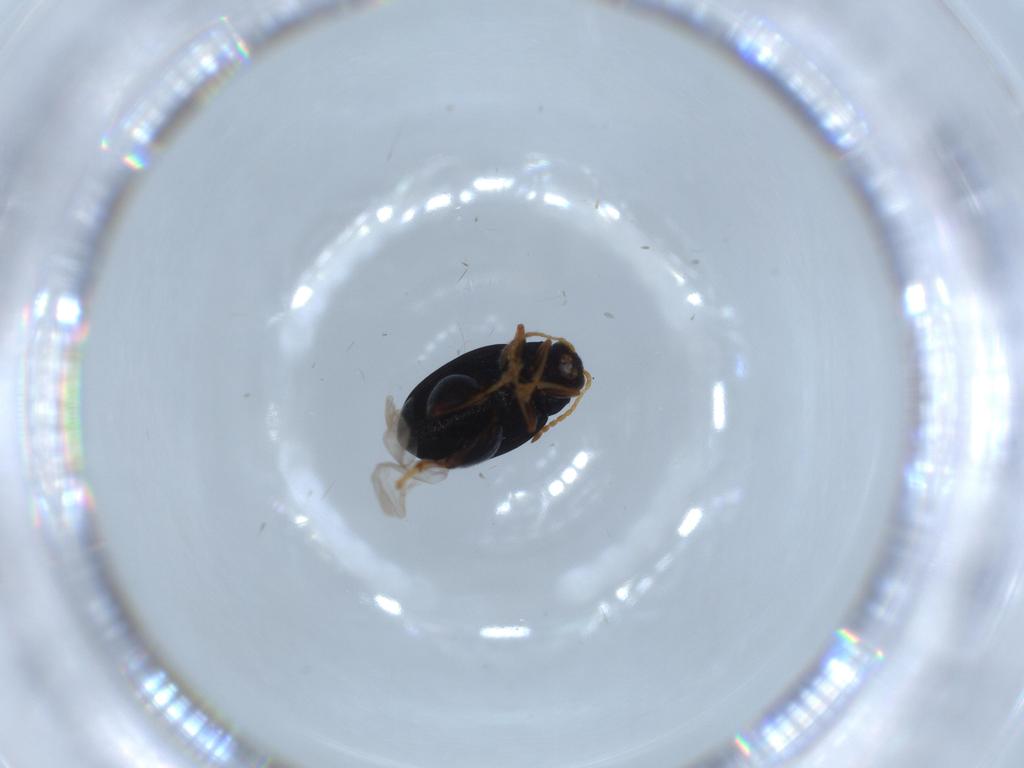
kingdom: Animalia
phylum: Arthropoda
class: Insecta
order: Coleoptera
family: Chrysomelidae
